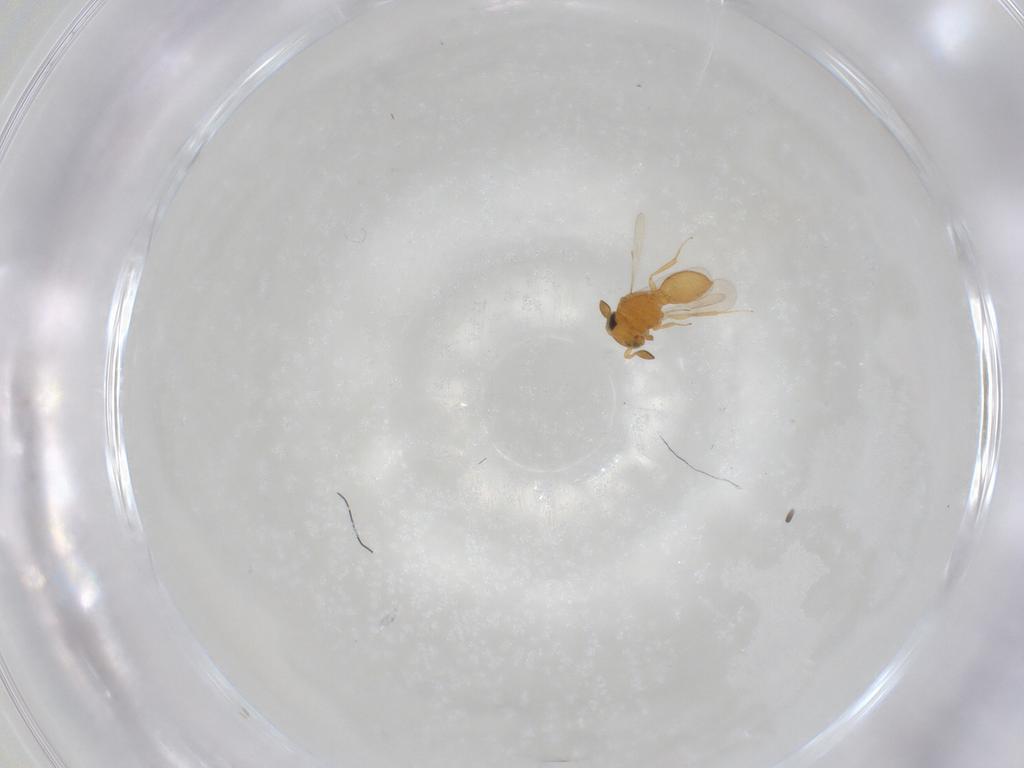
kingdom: Animalia
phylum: Arthropoda
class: Insecta
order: Hymenoptera
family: Scelionidae
